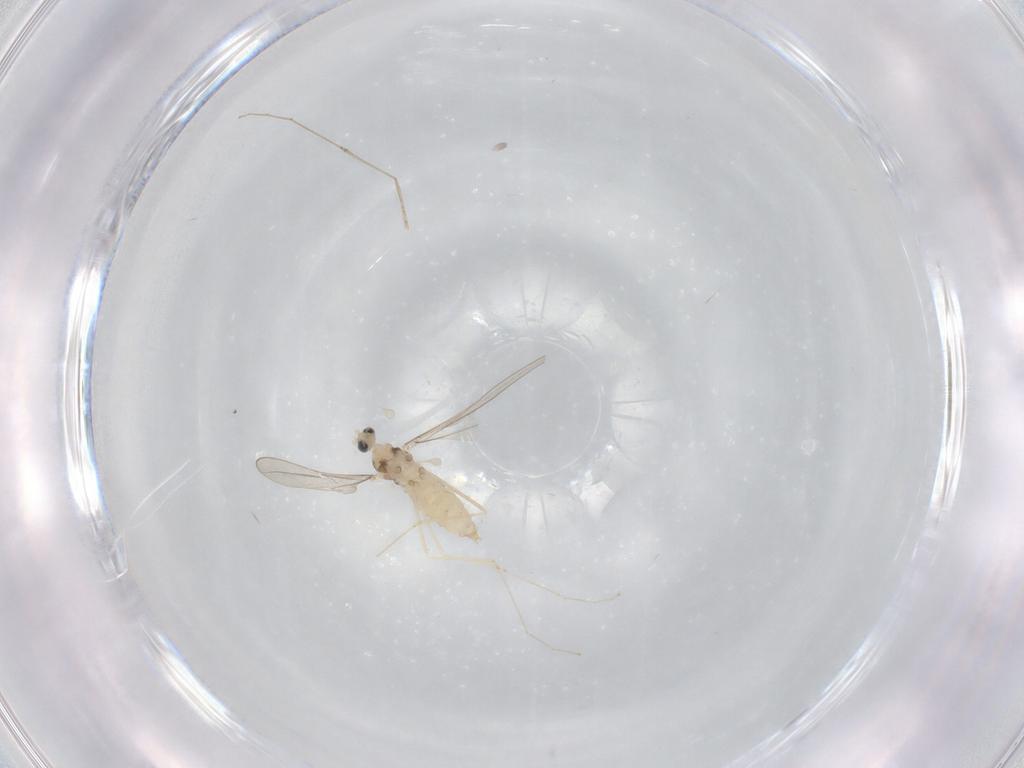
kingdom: Animalia
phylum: Arthropoda
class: Insecta
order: Diptera
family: Cecidomyiidae
